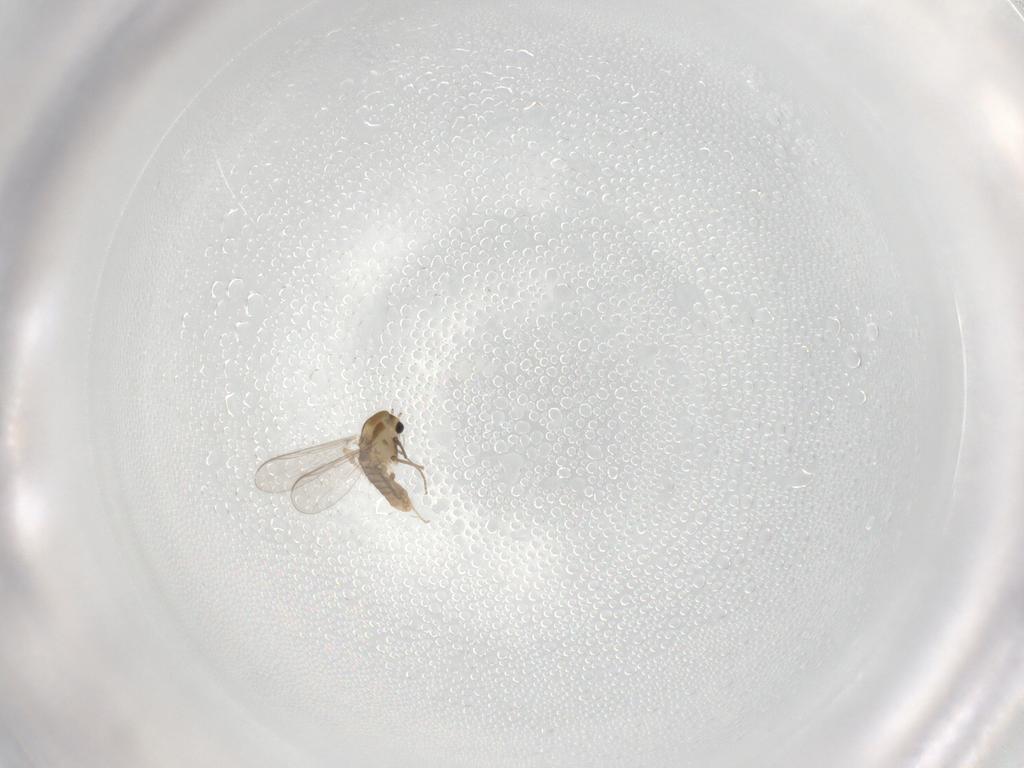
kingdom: Animalia
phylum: Arthropoda
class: Insecta
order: Diptera
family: Chironomidae
